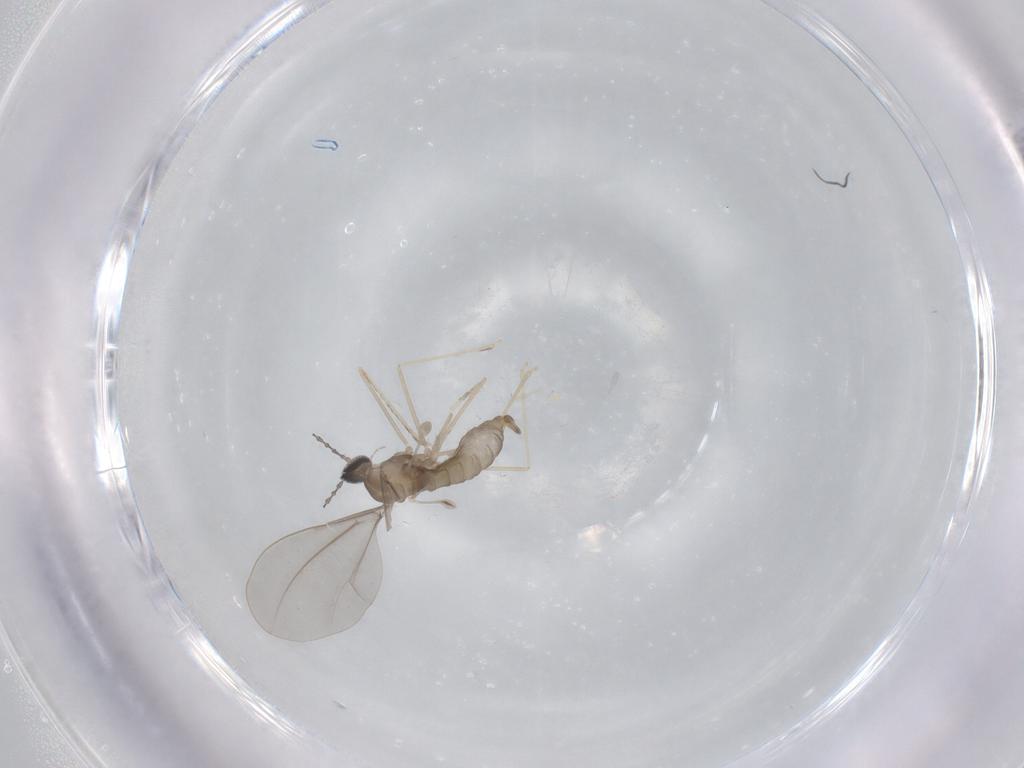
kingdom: Animalia
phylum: Arthropoda
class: Insecta
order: Diptera
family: Cecidomyiidae
